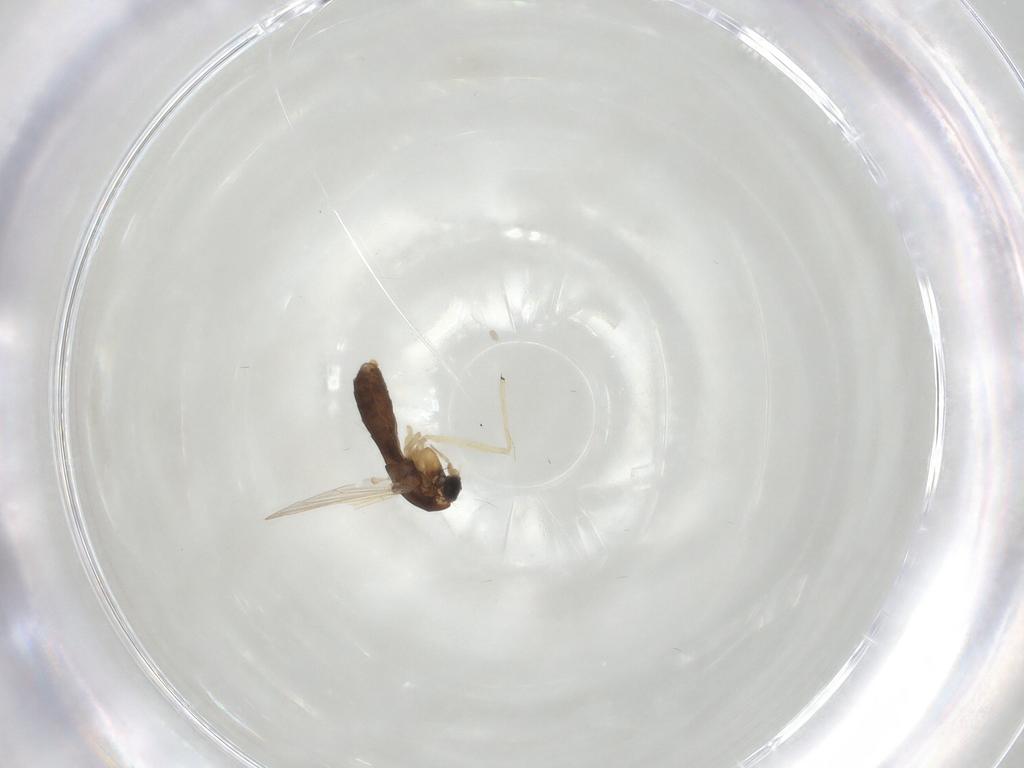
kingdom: Animalia
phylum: Arthropoda
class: Insecta
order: Diptera
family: Chironomidae
